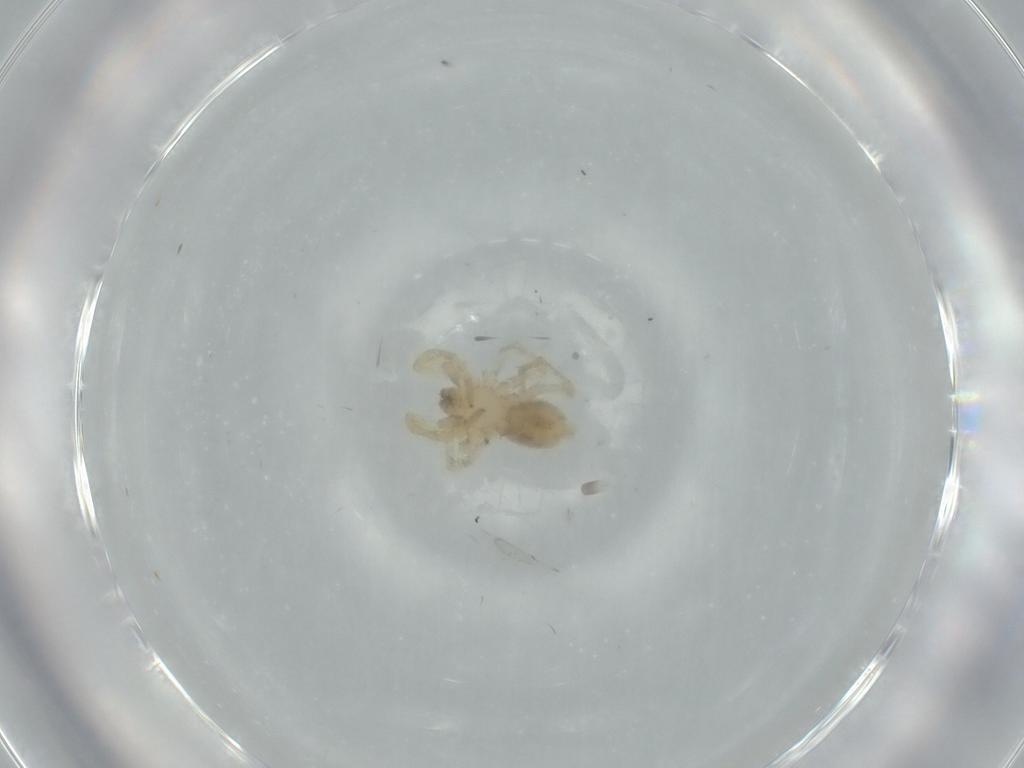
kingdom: Animalia
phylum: Arthropoda
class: Arachnida
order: Araneae
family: Oonopidae
